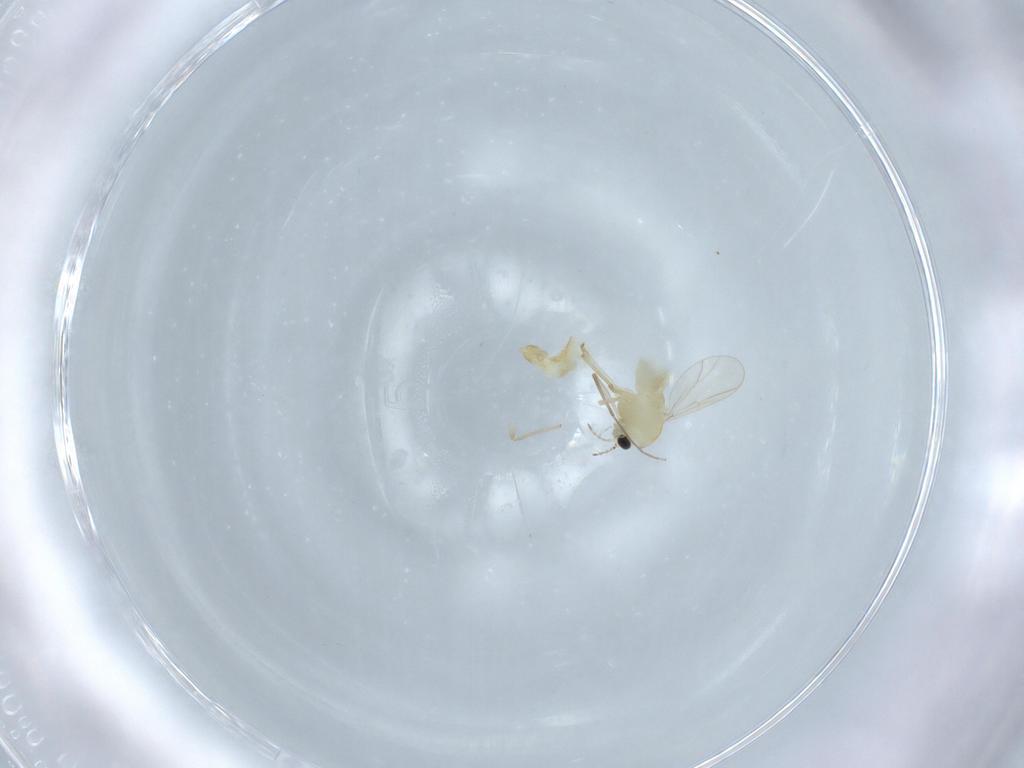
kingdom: Animalia
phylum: Arthropoda
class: Insecta
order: Diptera
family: Chironomidae
